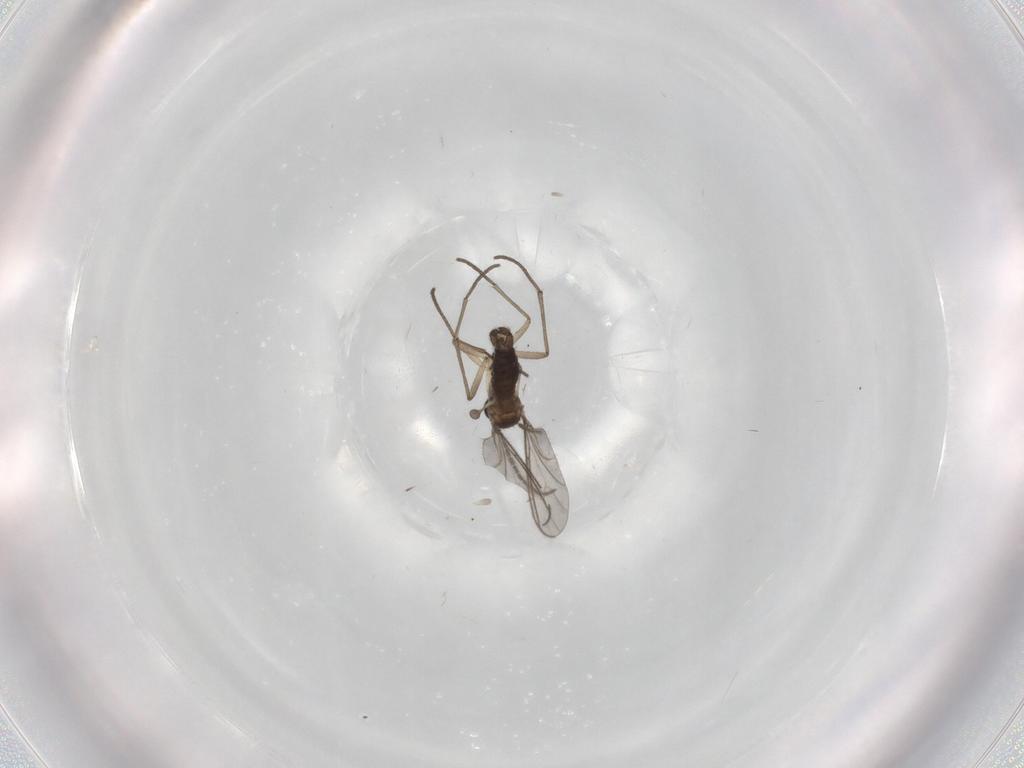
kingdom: Animalia
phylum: Arthropoda
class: Insecta
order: Diptera
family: Sciaridae
